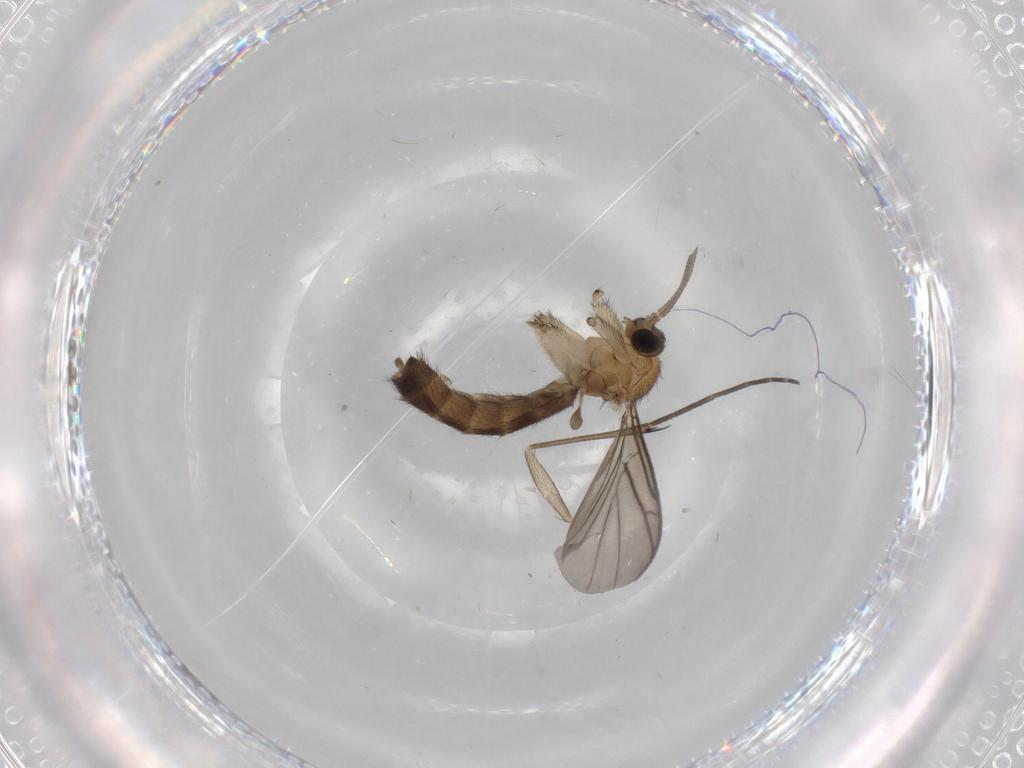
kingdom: Animalia
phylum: Arthropoda
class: Insecta
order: Diptera
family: Keroplatidae
